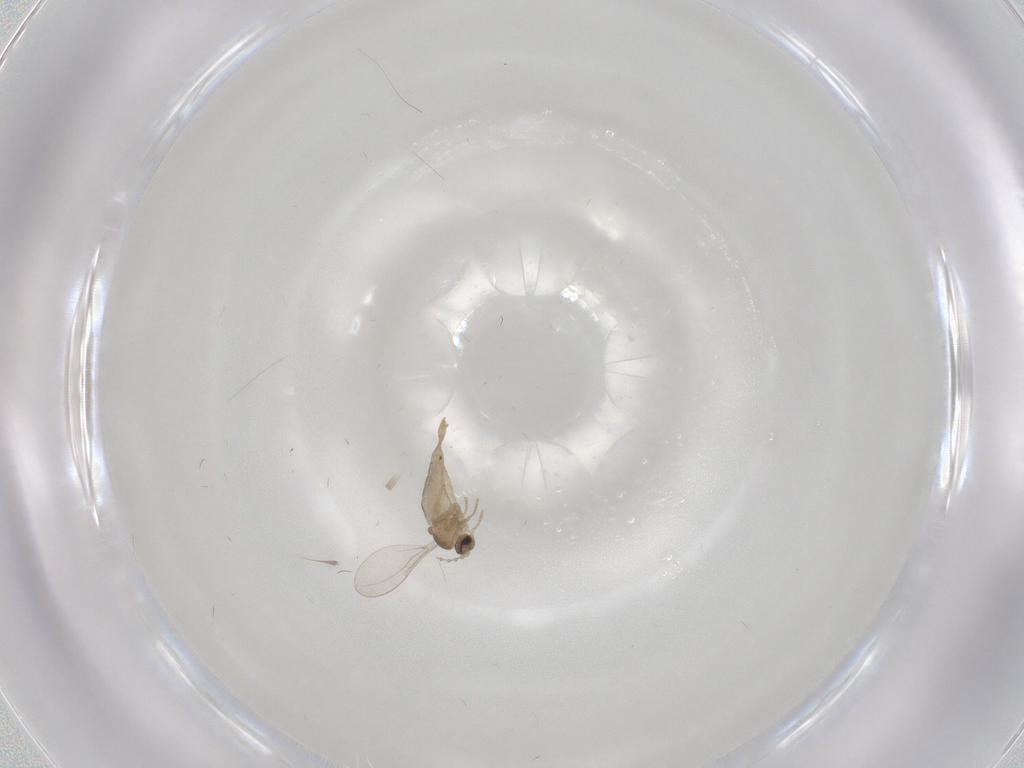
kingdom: Animalia
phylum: Arthropoda
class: Insecta
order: Diptera
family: Cecidomyiidae
